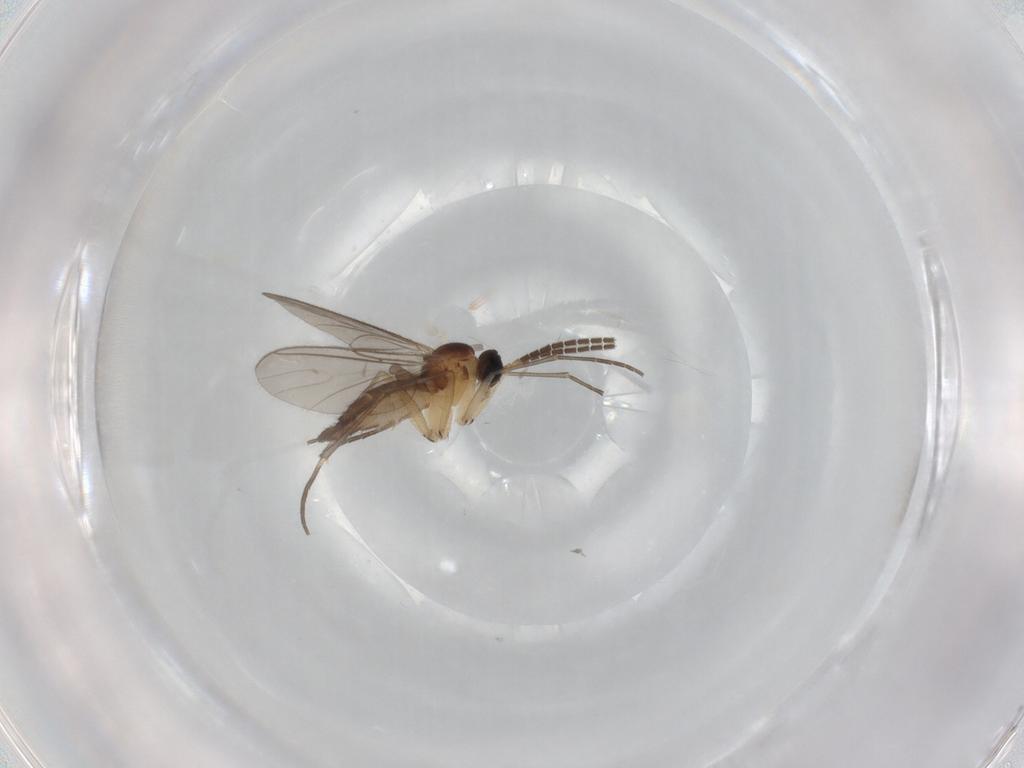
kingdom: Animalia
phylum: Arthropoda
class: Insecta
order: Diptera
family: Sciaridae
